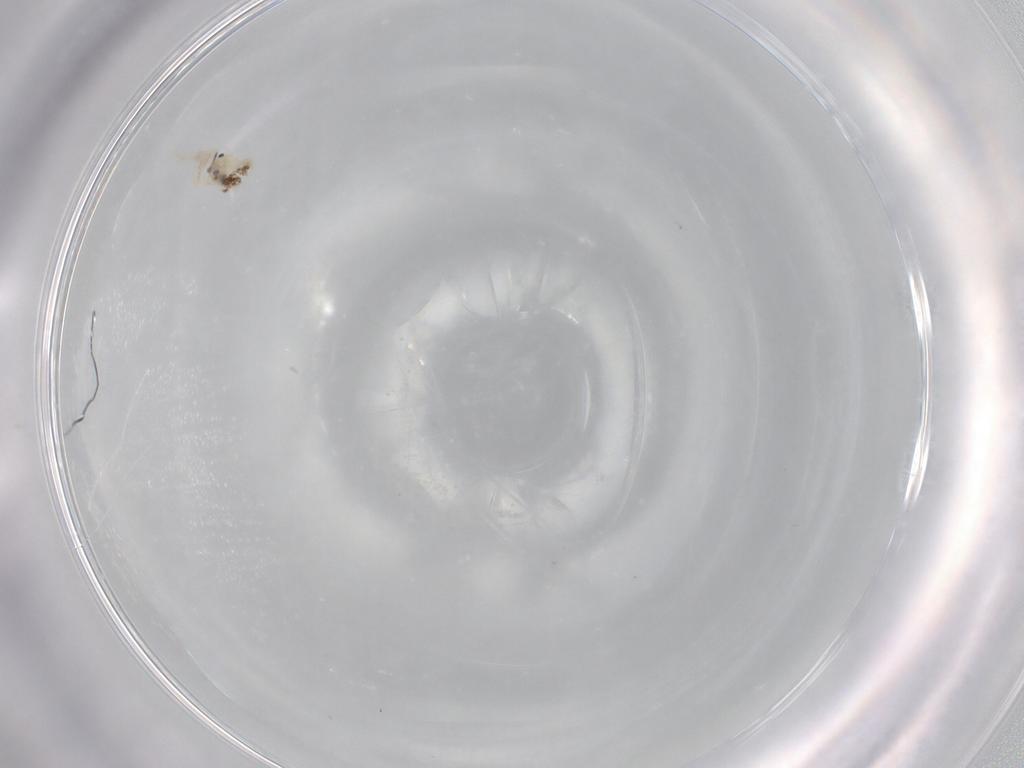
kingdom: Animalia
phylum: Arthropoda
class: Collembola
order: Entomobryomorpha
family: Entomobryidae
